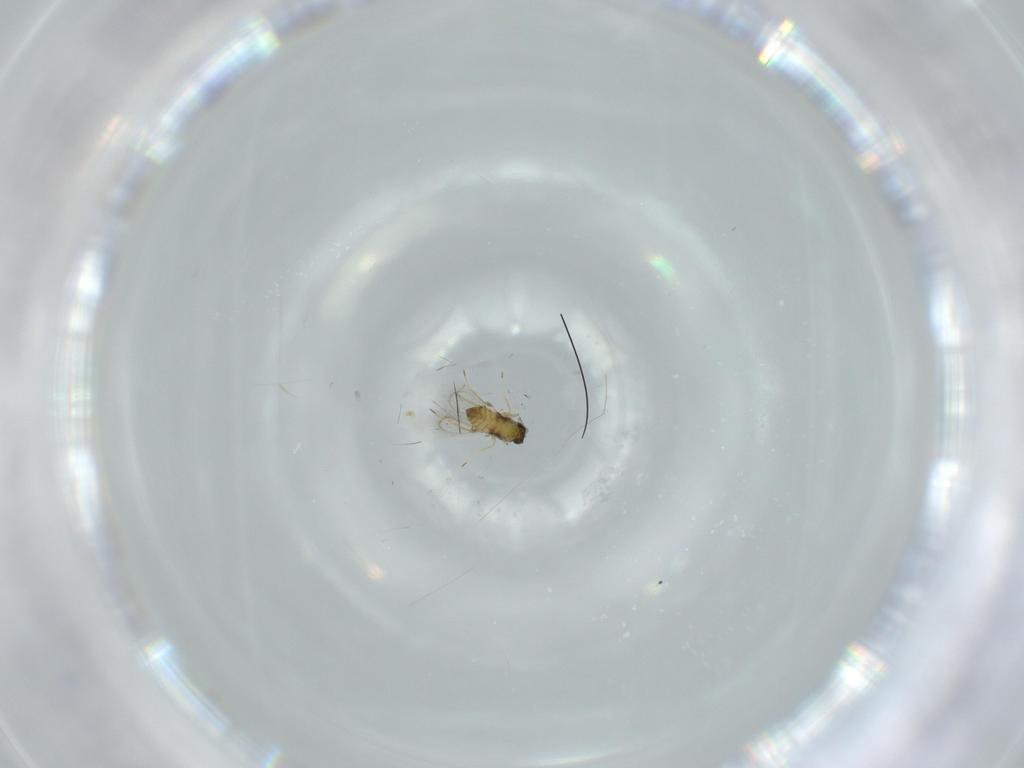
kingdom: Animalia
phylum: Arthropoda
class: Insecta
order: Hymenoptera
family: Trichogrammatidae
